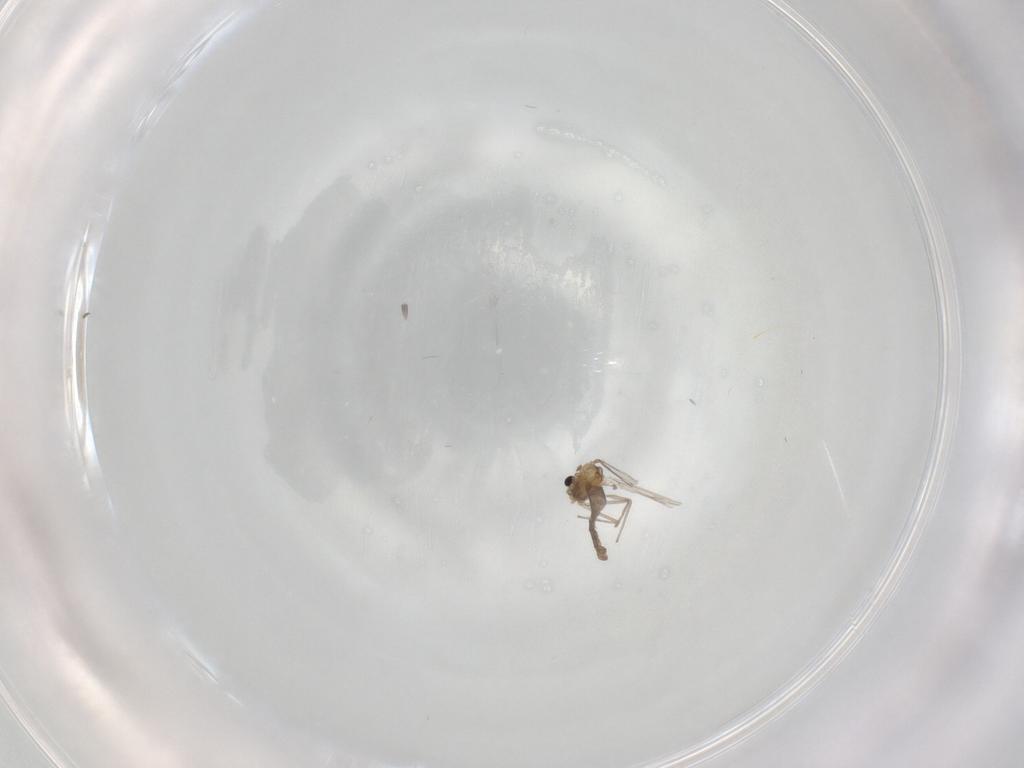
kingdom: Animalia
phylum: Arthropoda
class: Insecta
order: Diptera
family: Chironomidae
